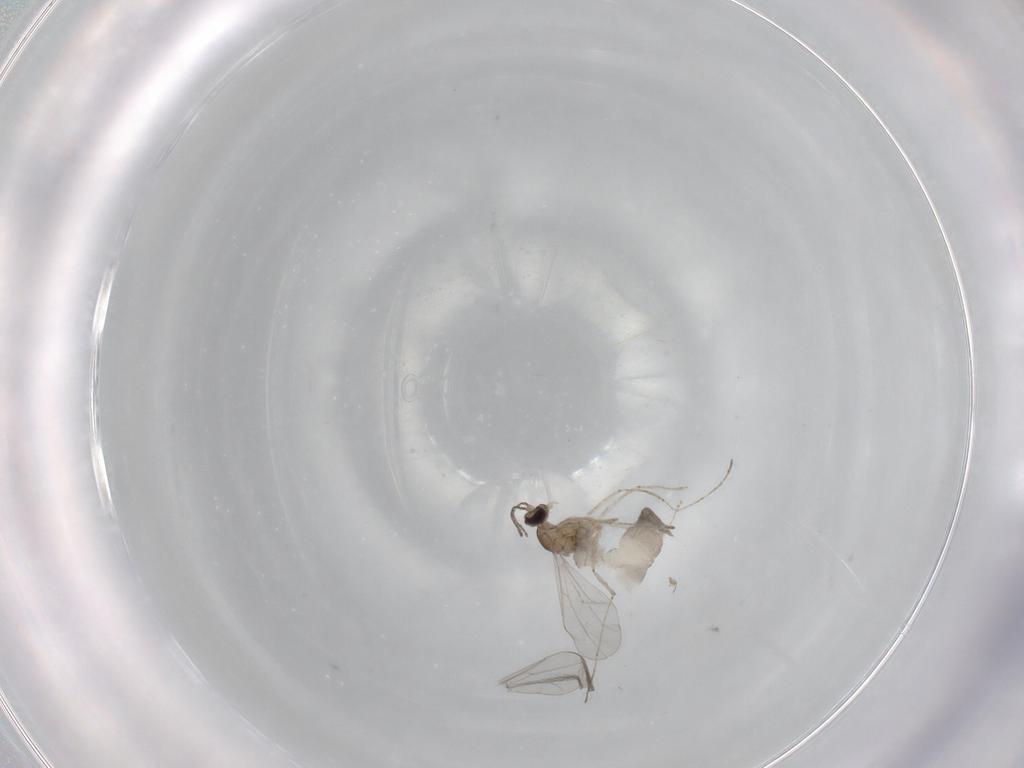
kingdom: Animalia
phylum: Arthropoda
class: Insecta
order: Diptera
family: Cecidomyiidae
